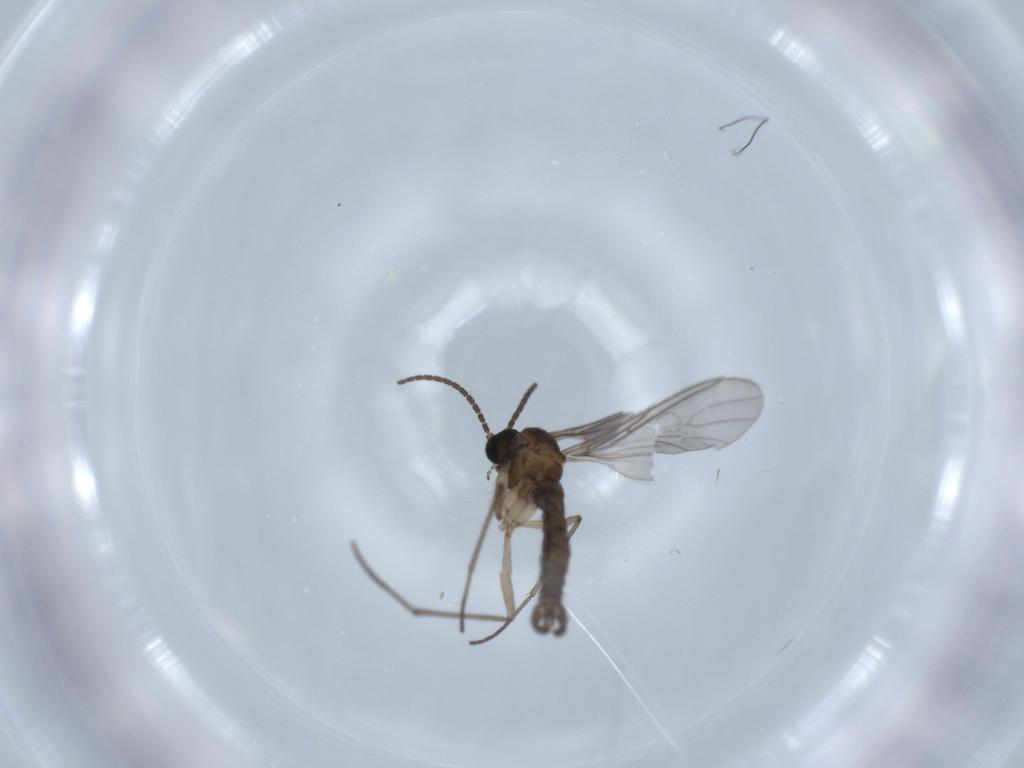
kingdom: Animalia
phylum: Arthropoda
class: Insecta
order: Diptera
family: Sciaridae
